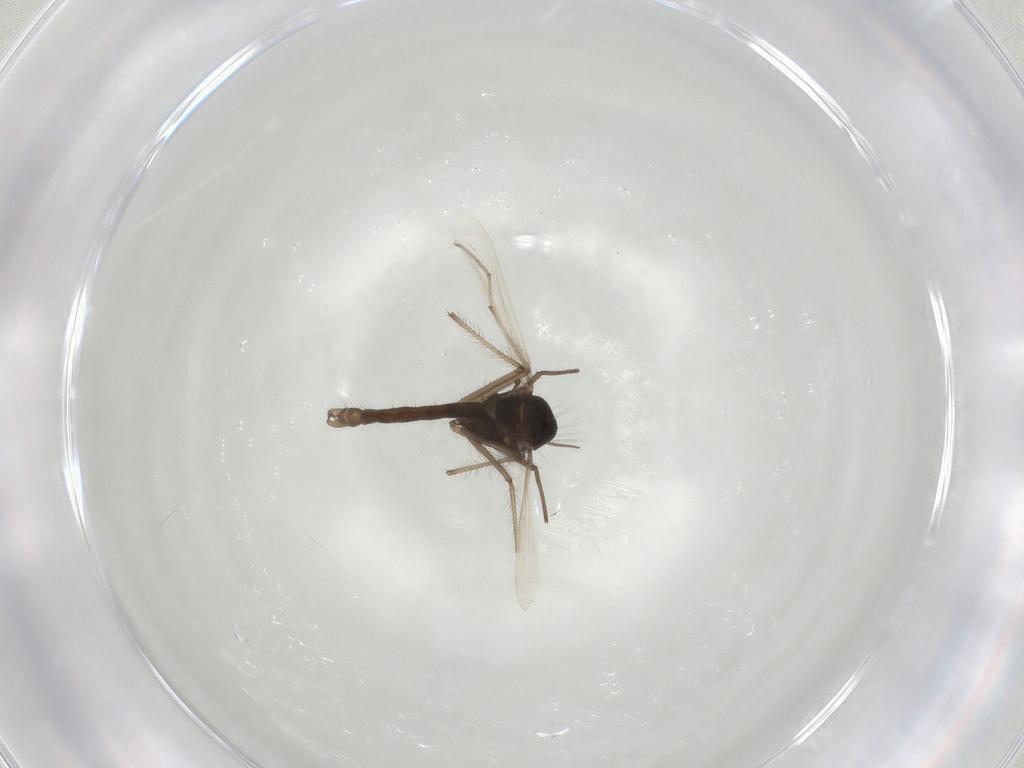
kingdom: Animalia
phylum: Arthropoda
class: Insecta
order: Diptera
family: Chironomidae
